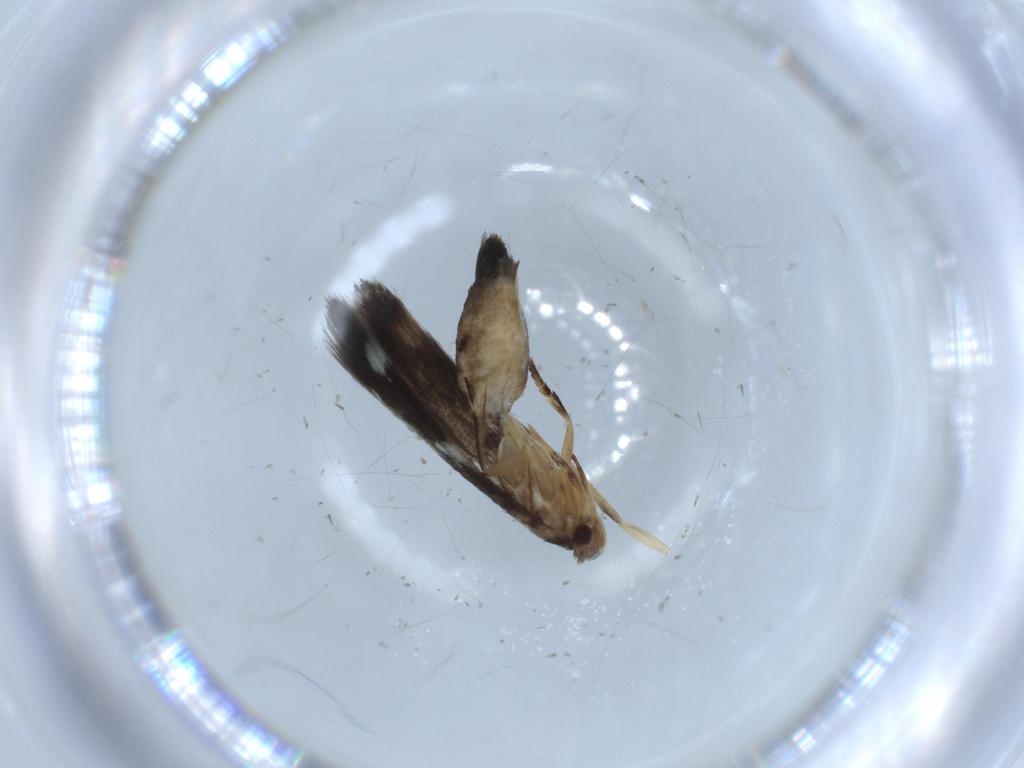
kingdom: Animalia
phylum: Arthropoda
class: Insecta
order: Lepidoptera
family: Cosmopterigidae
